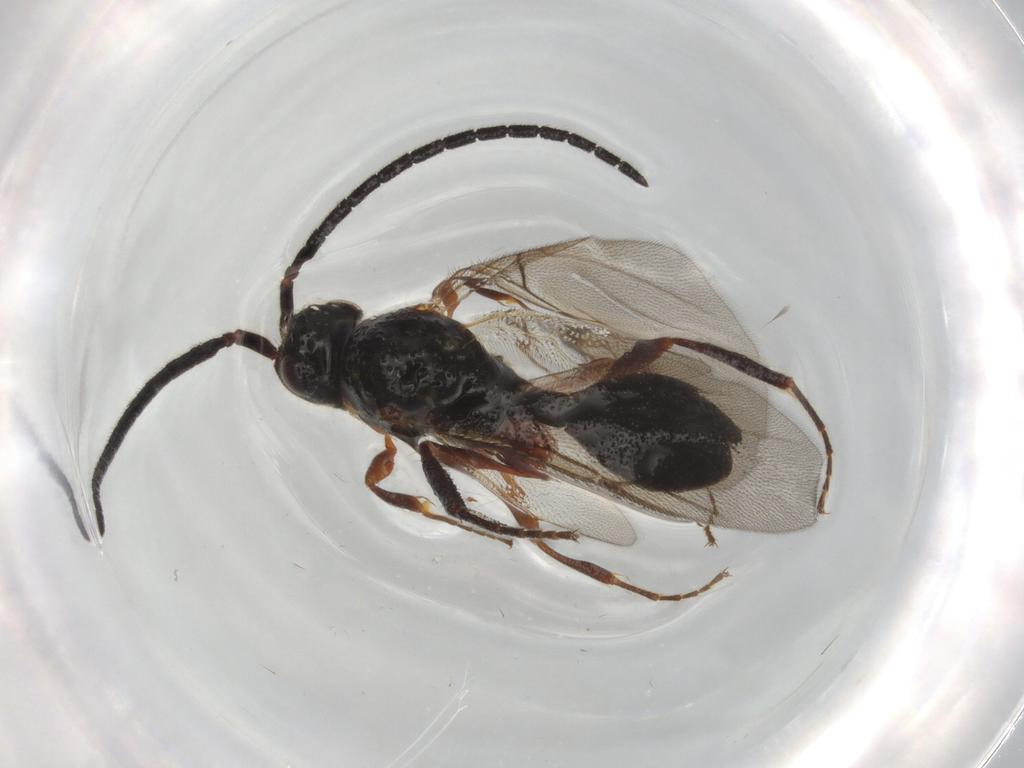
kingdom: Animalia
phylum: Arthropoda
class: Insecta
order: Hymenoptera
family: Diapriidae
